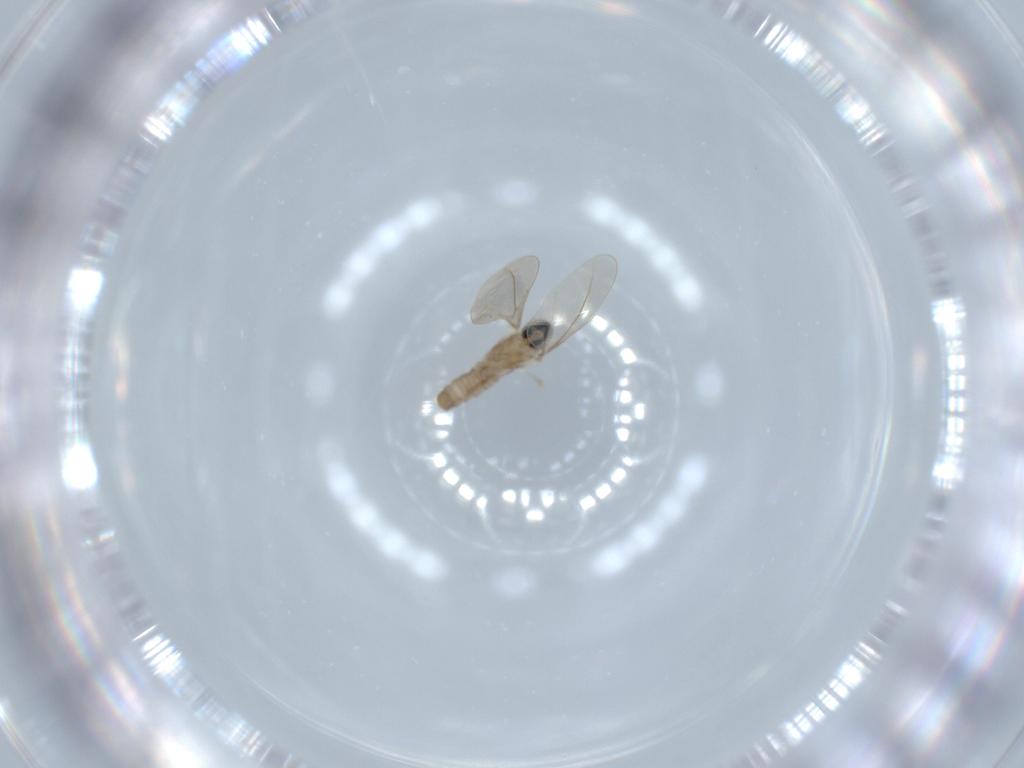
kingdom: Animalia
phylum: Arthropoda
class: Insecta
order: Diptera
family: Cecidomyiidae
